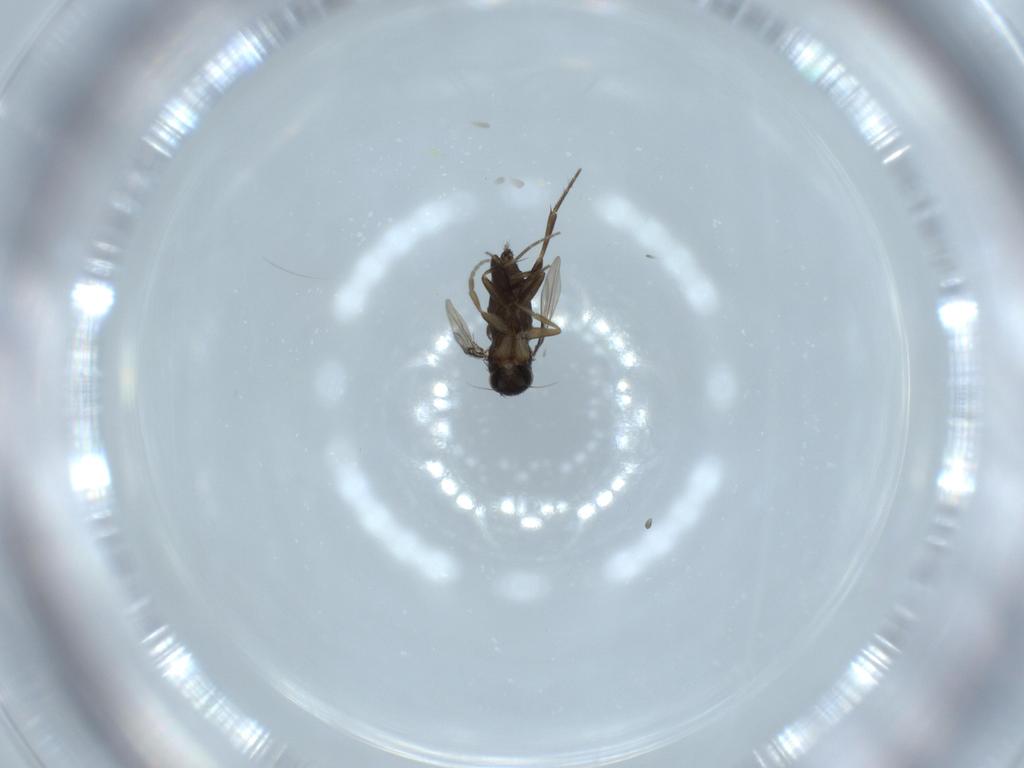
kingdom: Animalia
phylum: Arthropoda
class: Insecta
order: Diptera
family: Phoridae
